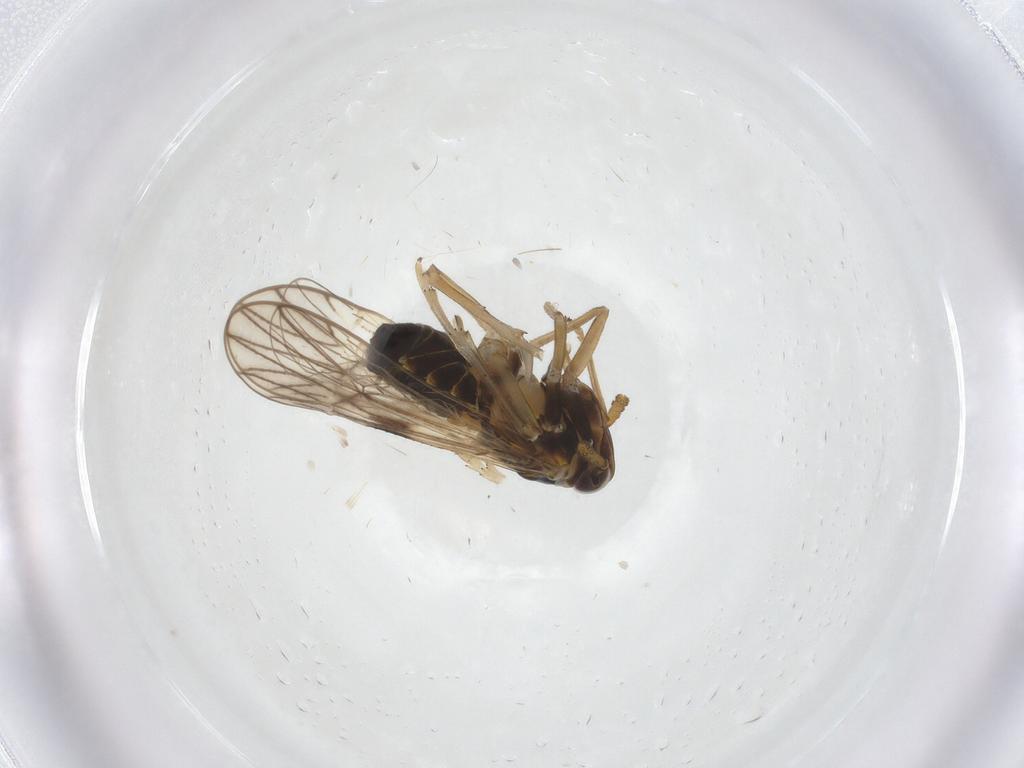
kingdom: Animalia
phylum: Arthropoda
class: Insecta
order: Hemiptera
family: Delphacidae
